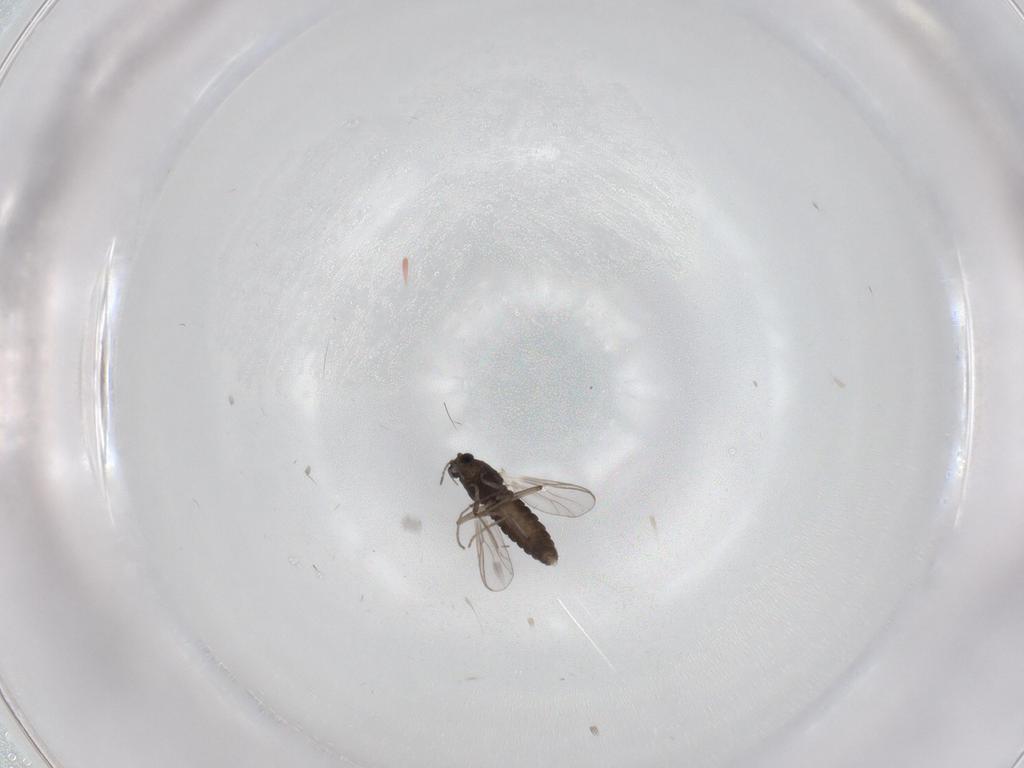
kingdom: Animalia
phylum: Arthropoda
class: Insecta
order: Diptera
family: Chironomidae
